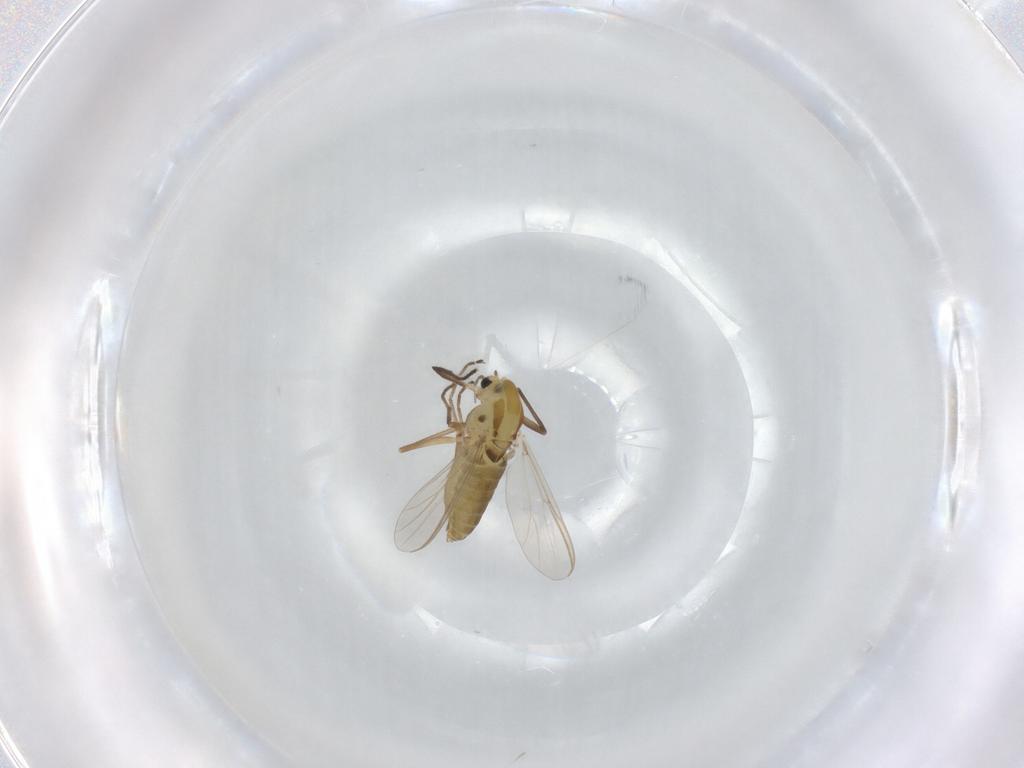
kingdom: Animalia
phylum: Arthropoda
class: Insecta
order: Diptera
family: Chironomidae
